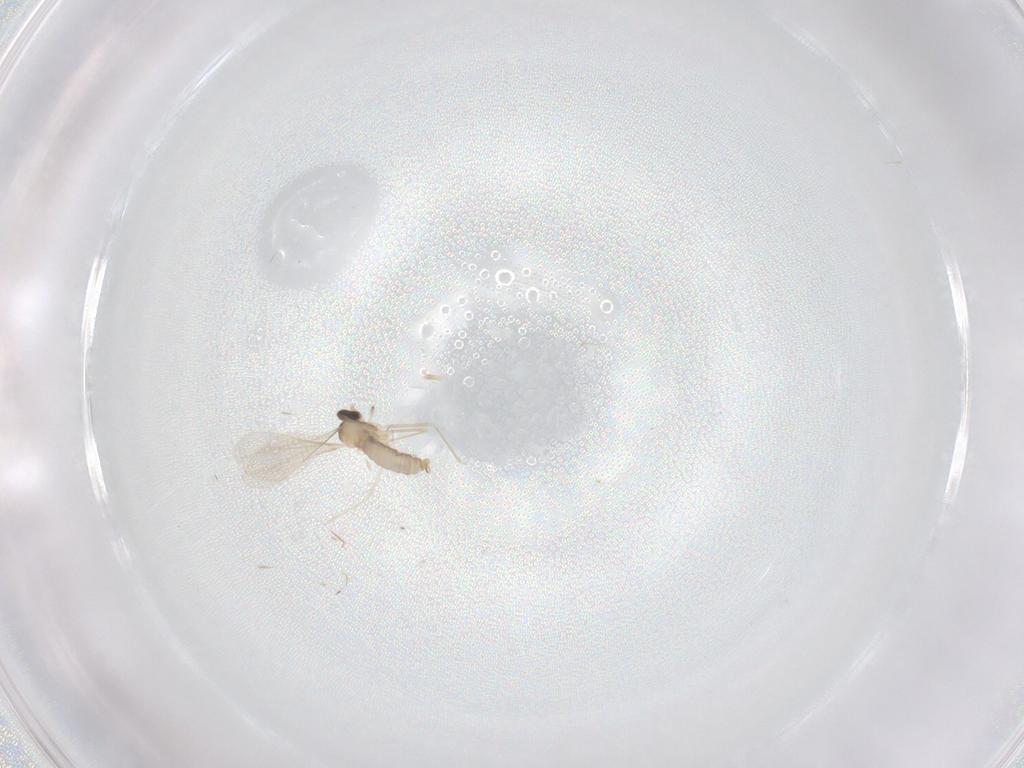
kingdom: Animalia
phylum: Arthropoda
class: Insecta
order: Diptera
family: Cecidomyiidae
